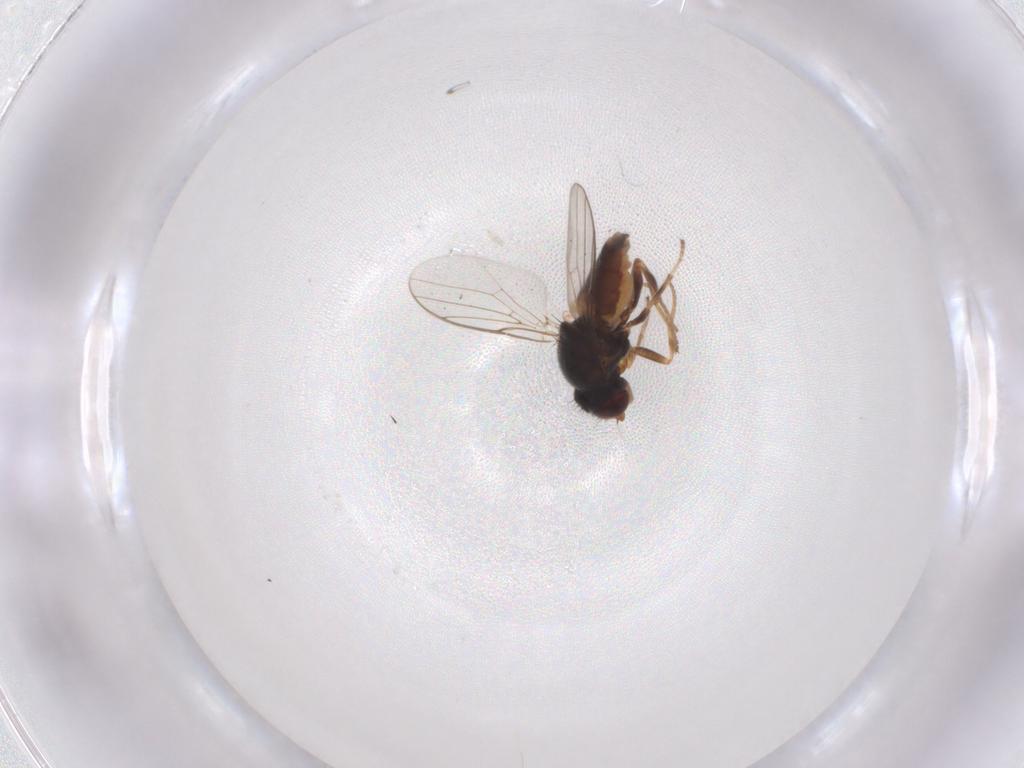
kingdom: Animalia
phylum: Arthropoda
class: Insecta
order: Diptera
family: Chloropidae
